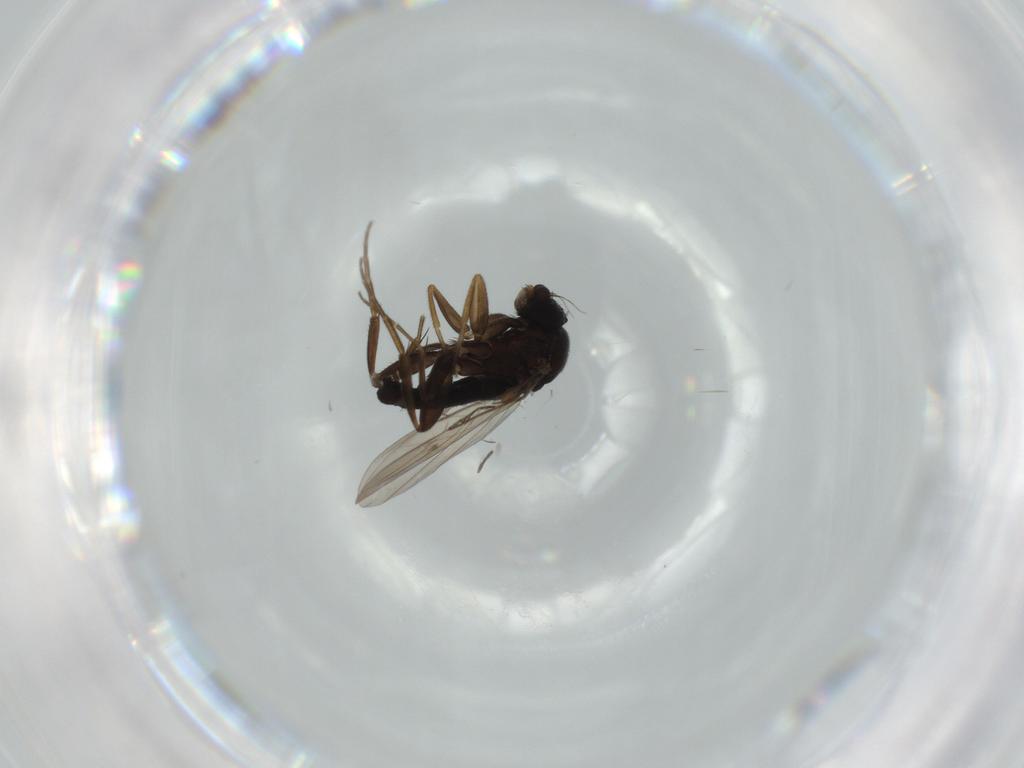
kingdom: Animalia
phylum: Arthropoda
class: Insecta
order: Diptera
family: Phoridae
